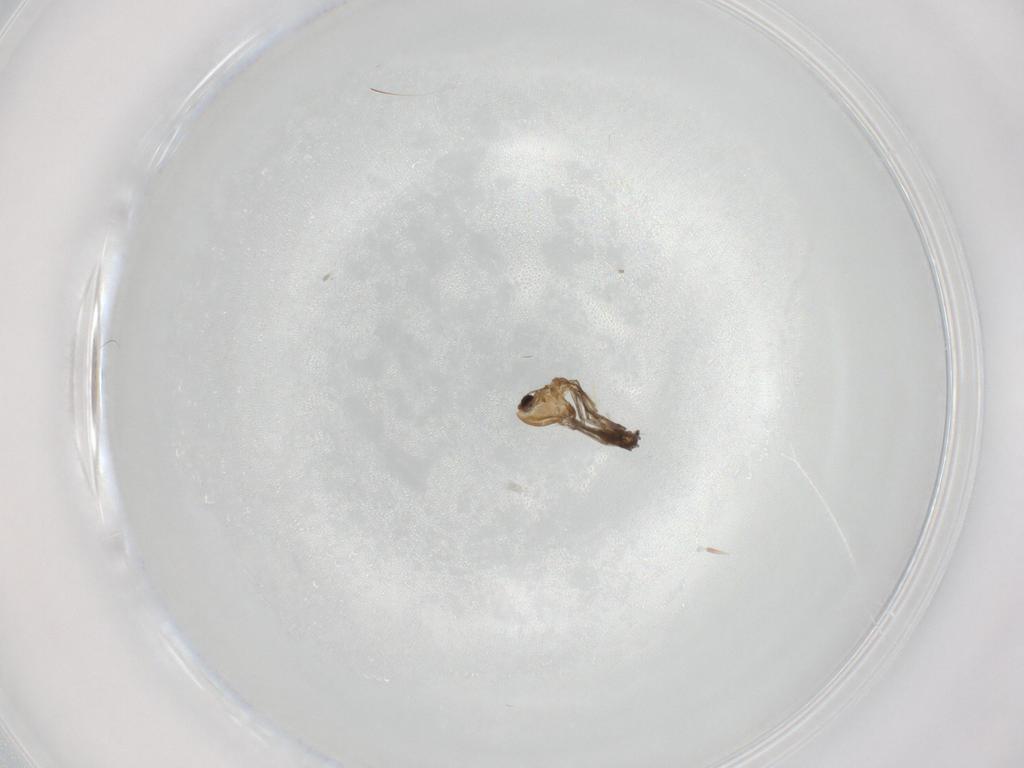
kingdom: Animalia
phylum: Arthropoda
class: Insecta
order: Diptera
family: Chironomidae
